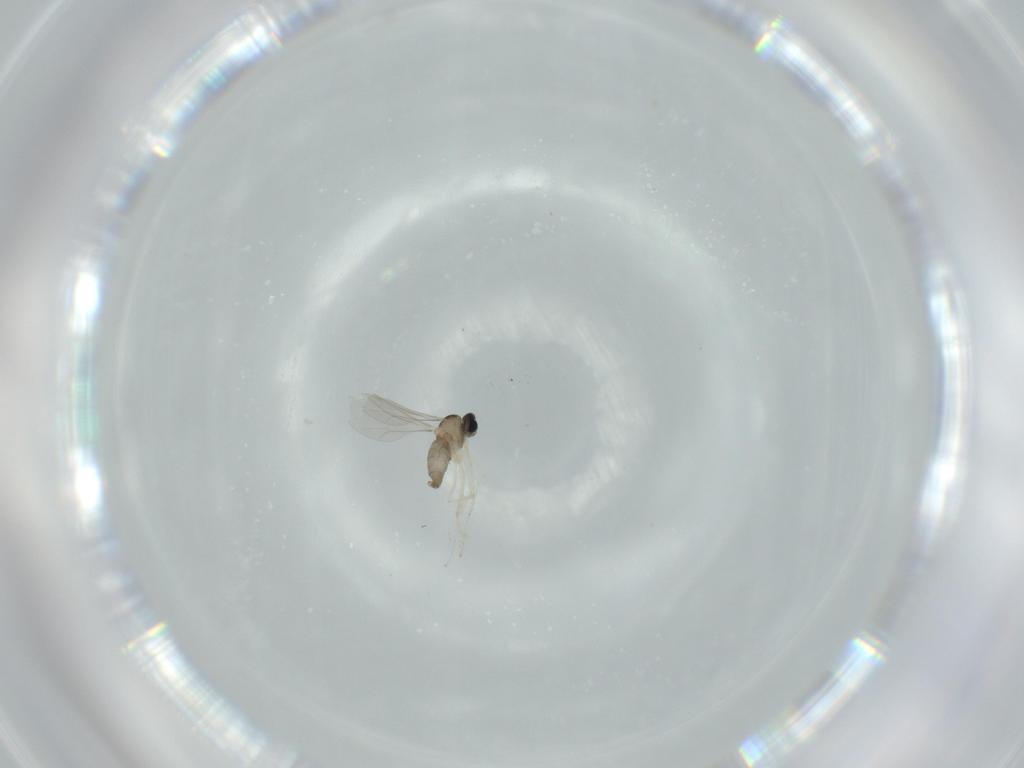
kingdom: Animalia
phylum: Arthropoda
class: Insecta
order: Diptera
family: Cecidomyiidae
